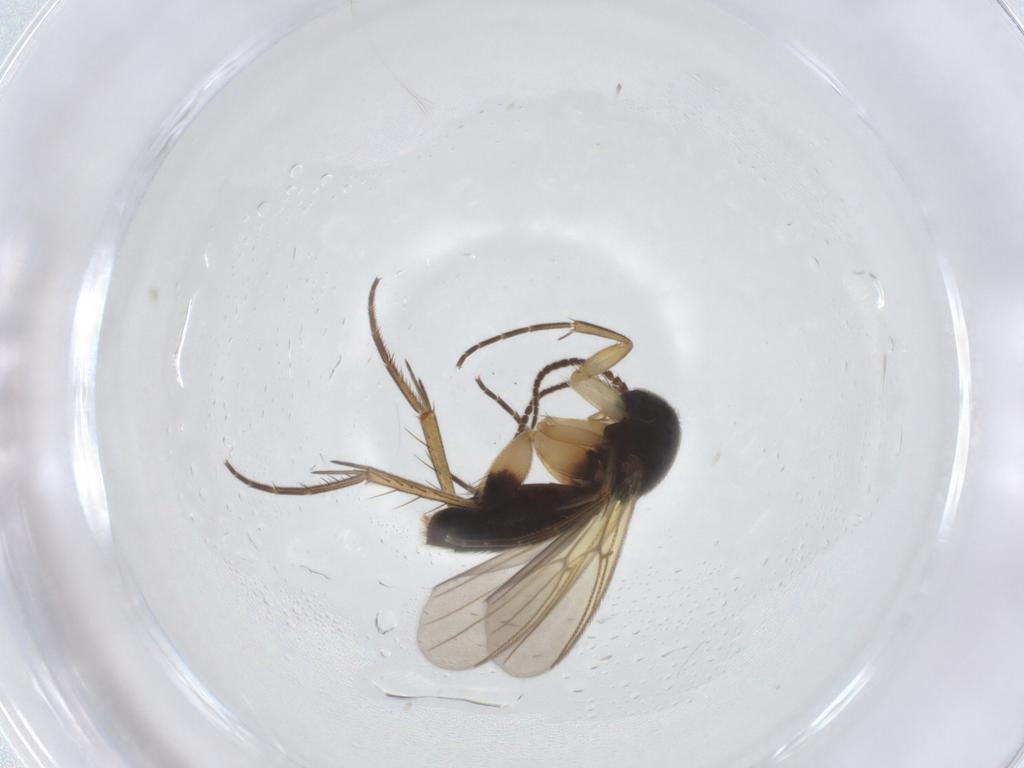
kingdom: Animalia
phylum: Arthropoda
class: Insecta
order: Diptera
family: Mycetophilidae
